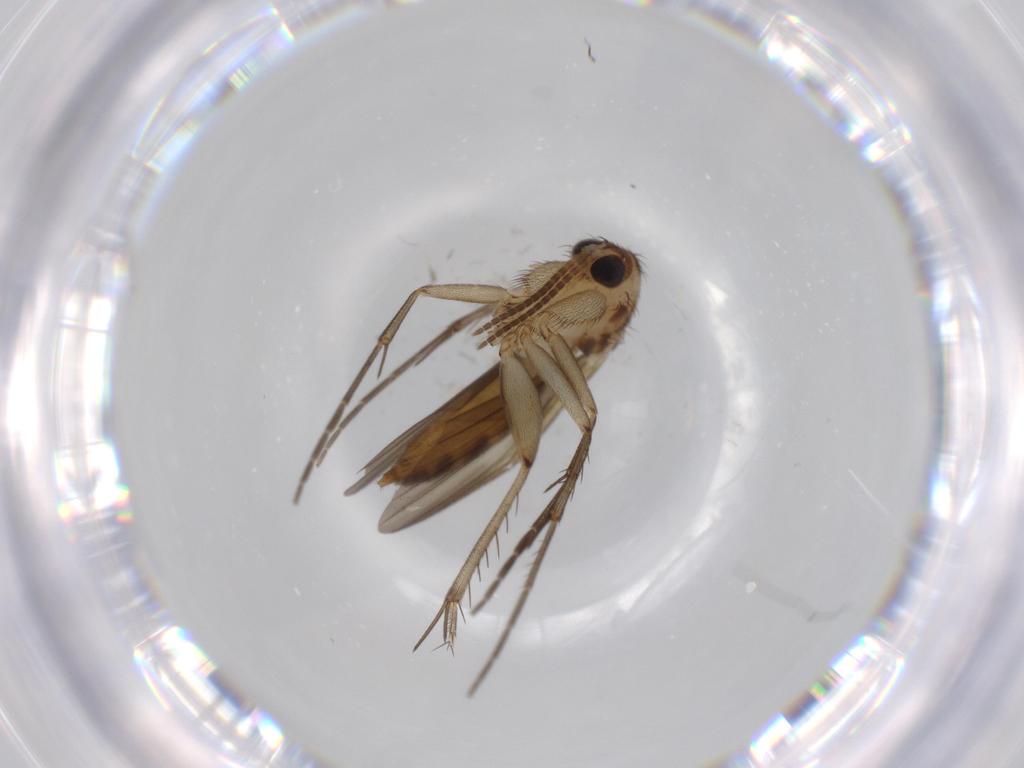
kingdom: Animalia
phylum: Arthropoda
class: Insecta
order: Diptera
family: Mycetophilidae
